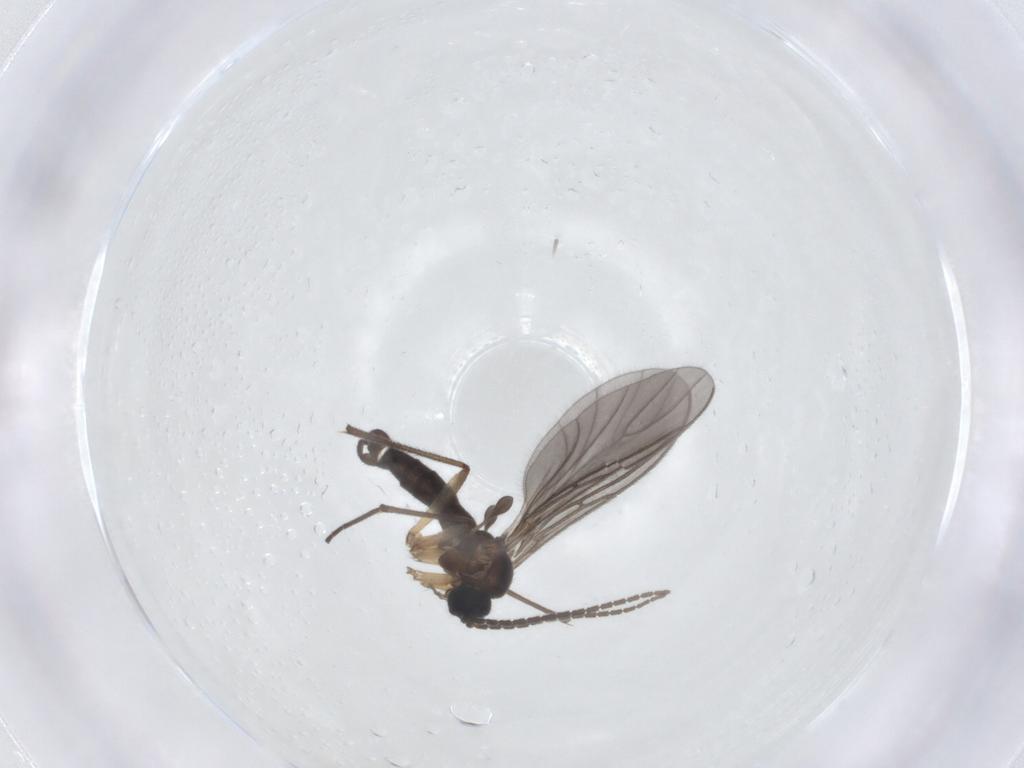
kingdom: Animalia
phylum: Arthropoda
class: Insecta
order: Diptera
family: Sciaridae
